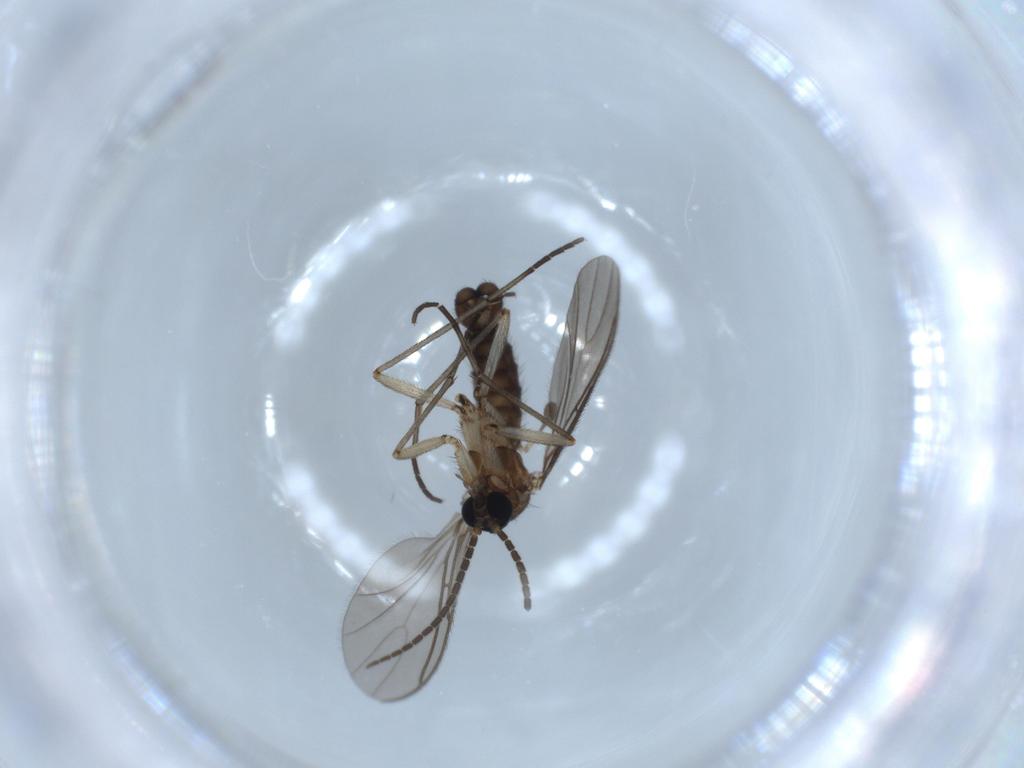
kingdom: Animalia
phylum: Arthropoda
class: Insecta
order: Diptera
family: Sciaridae
